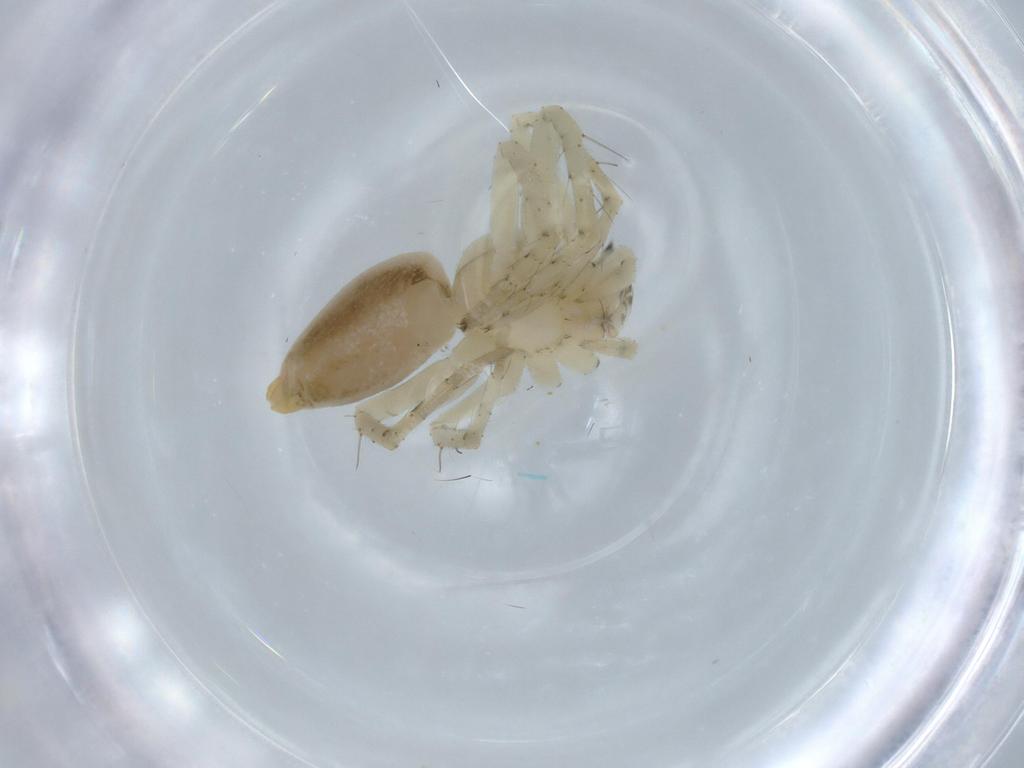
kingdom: Animalia
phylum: Arthropoda
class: Arachnida
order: Araneae
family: Oxyopidae
